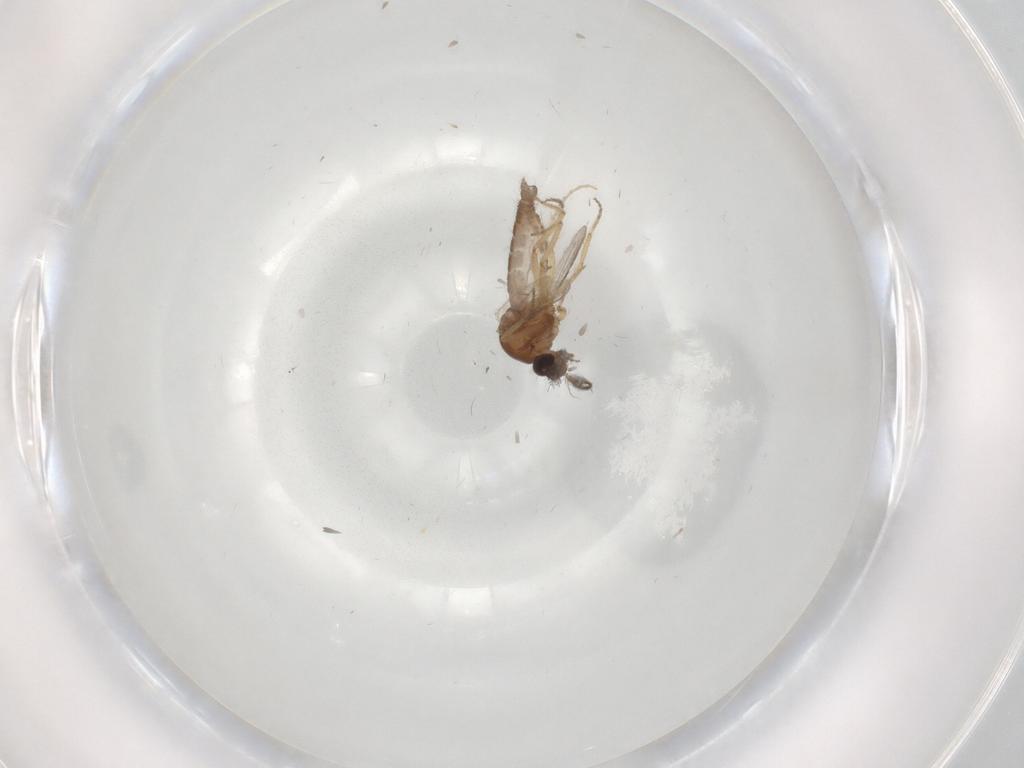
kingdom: Animalia
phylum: Arthropoda
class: Insecta
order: Diptera
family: Ceratopogonidae
